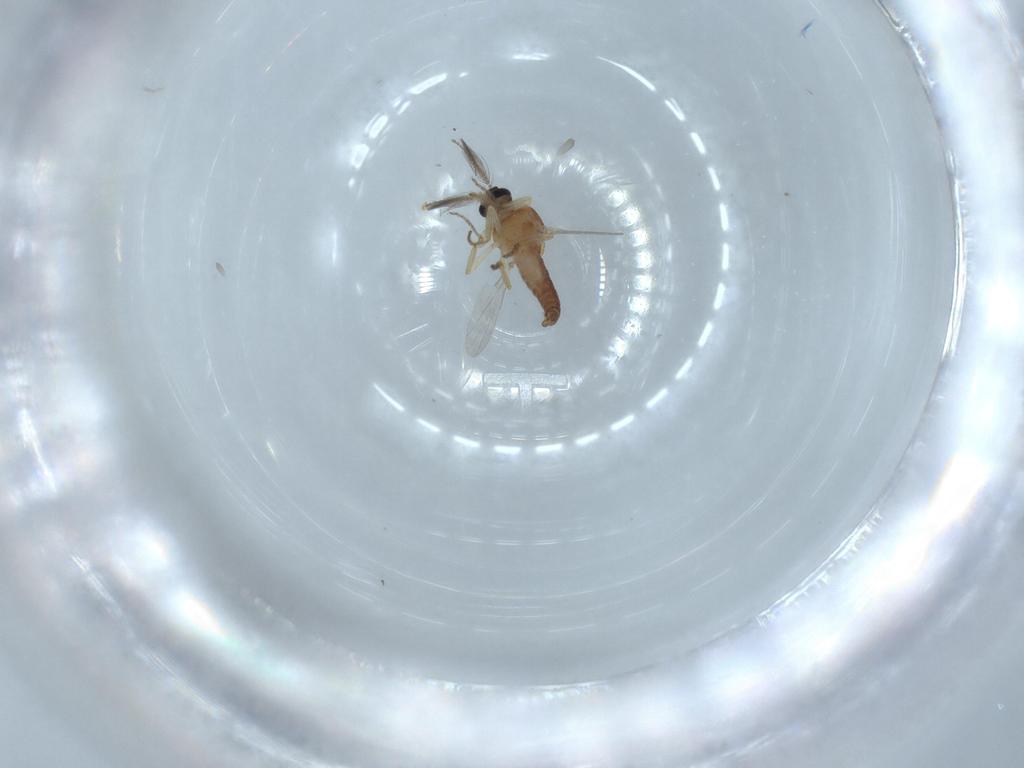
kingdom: Animalia
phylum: Arthropoda
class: Insecta
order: Diptera
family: Ceratopogonidae
